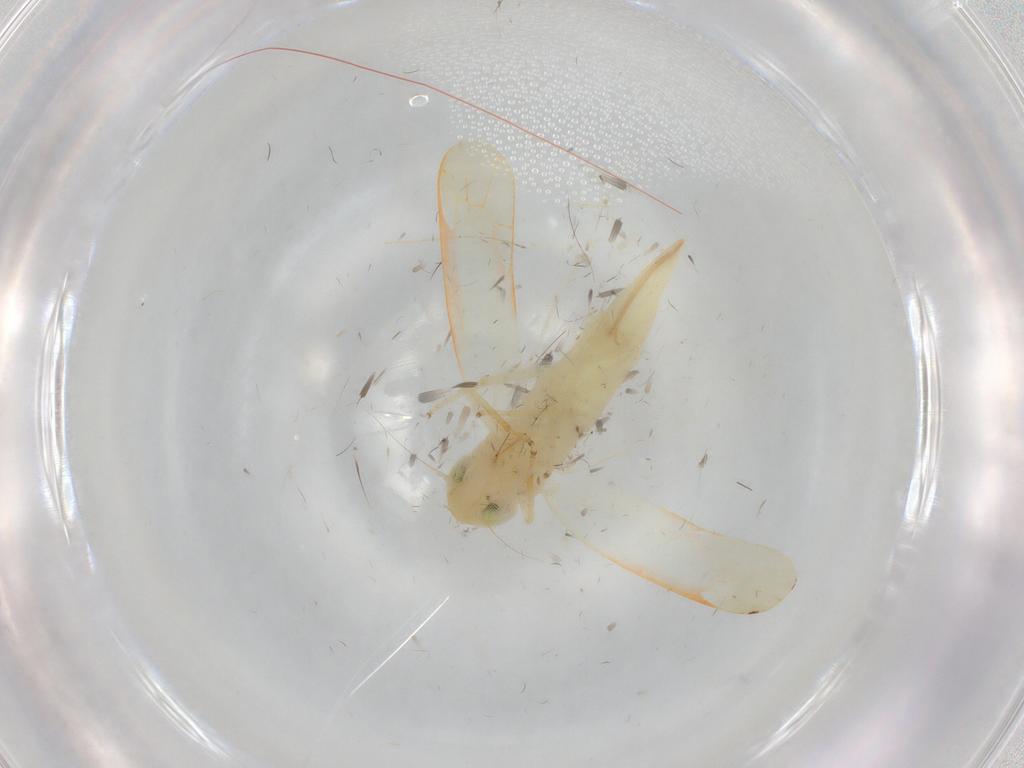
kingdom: Animalia
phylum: Arthropoda
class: Insecta
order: Hemiptera
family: Cicadellidae
